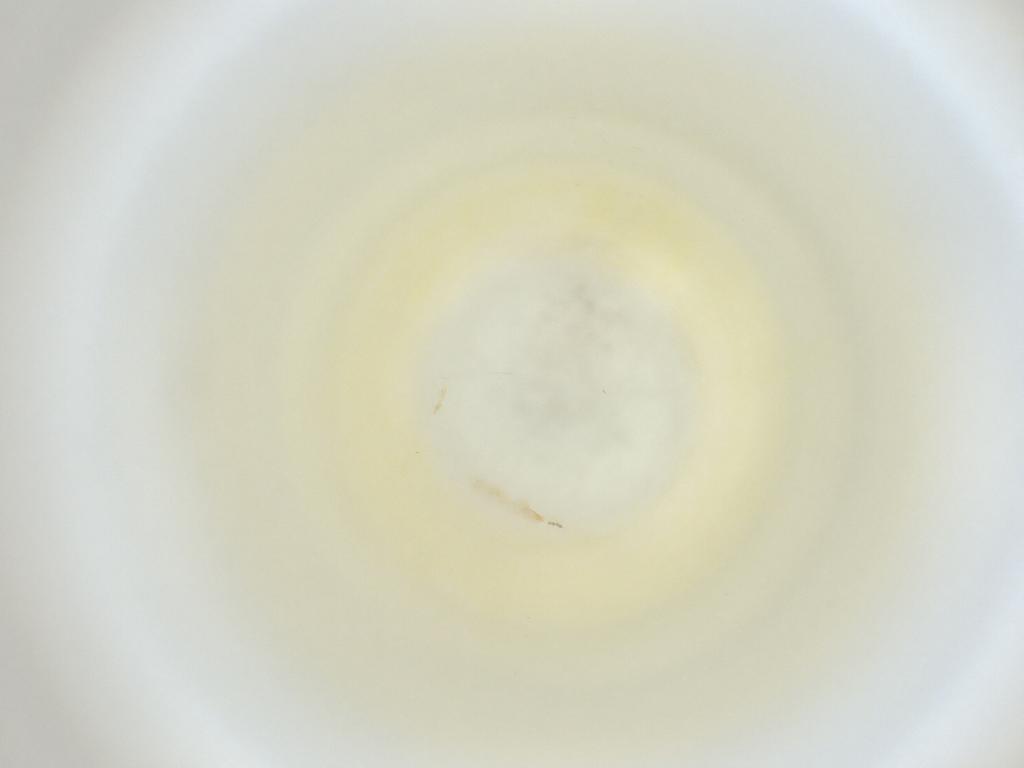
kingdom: Animalia
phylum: Arthropoda
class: Insecta
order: Diptera
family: Cecidomyiidae
